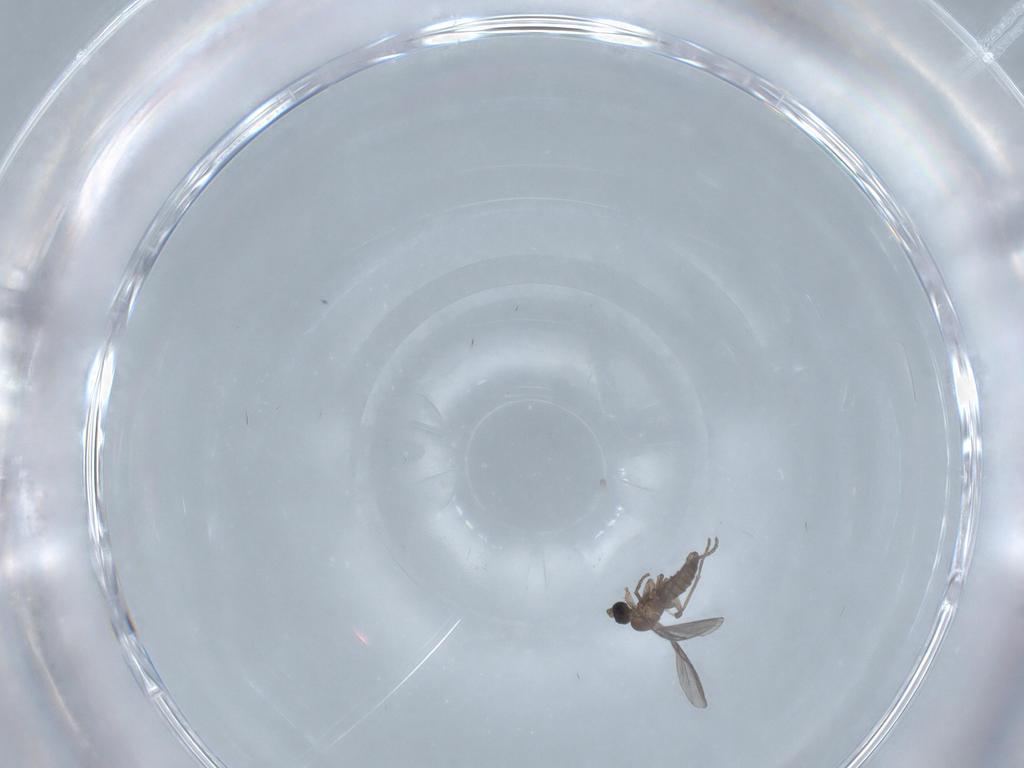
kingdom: Animalia
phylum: Arthropoda
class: Insecta
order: Diptera
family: Sciaridae
